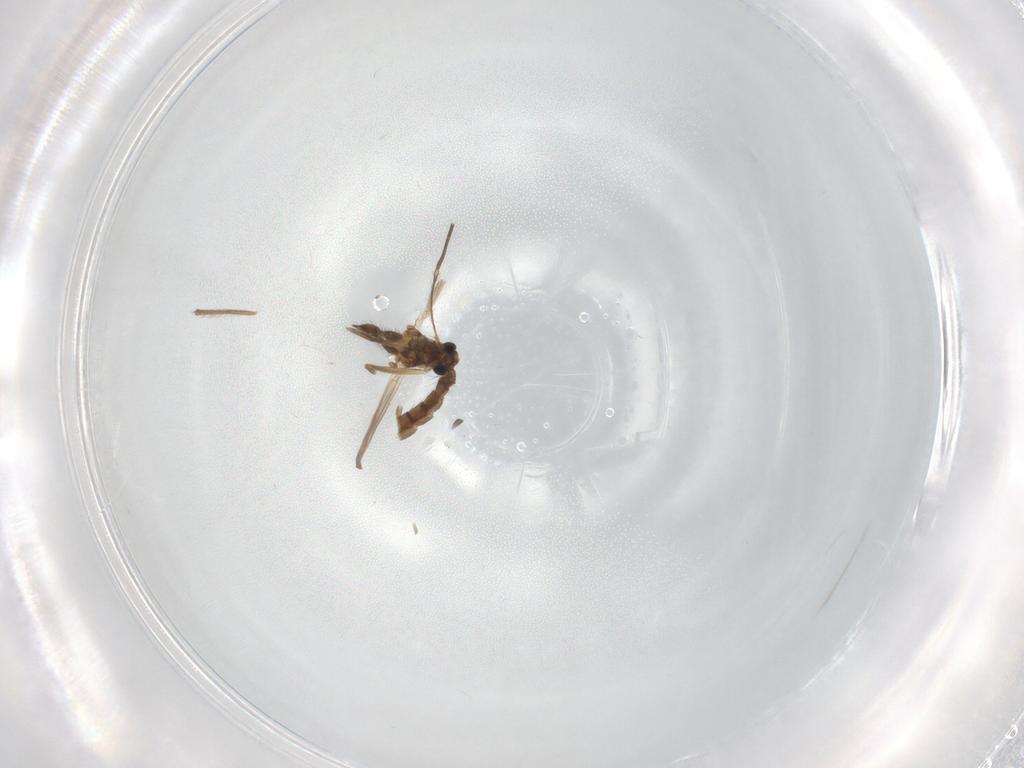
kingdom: Animalia
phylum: Arthropoda
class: Insecta
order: Diptera
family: Chironomidae
